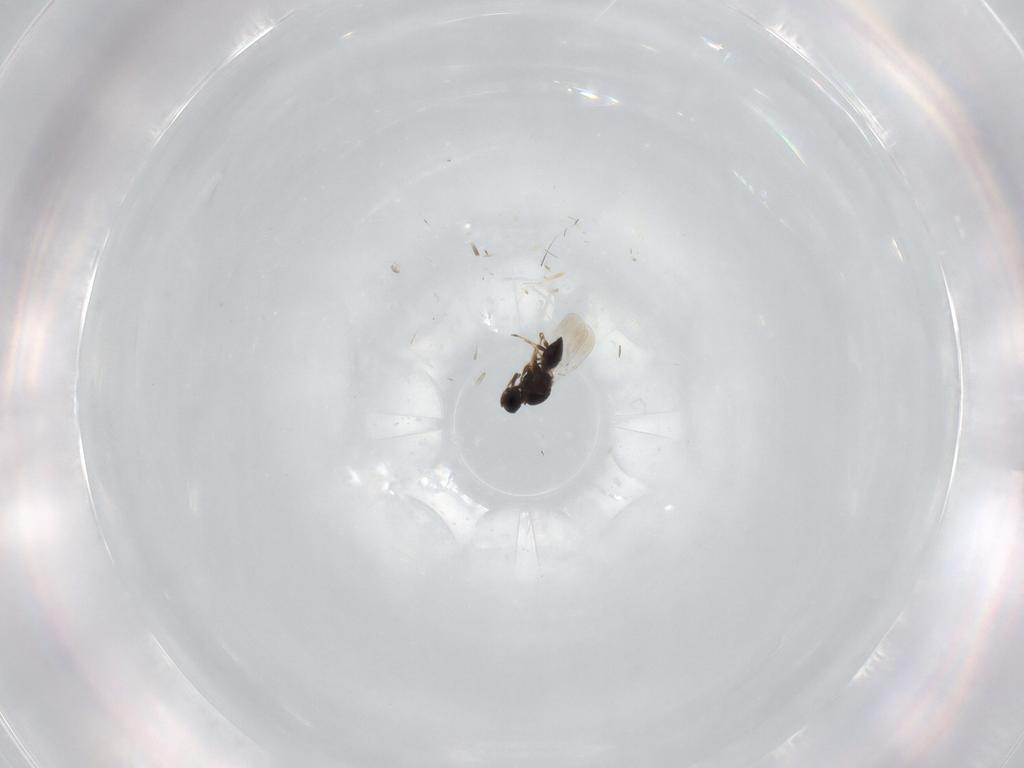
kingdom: Animalia
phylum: Arthropoda
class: Insecta
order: Hymenoptera
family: Platygastridae
